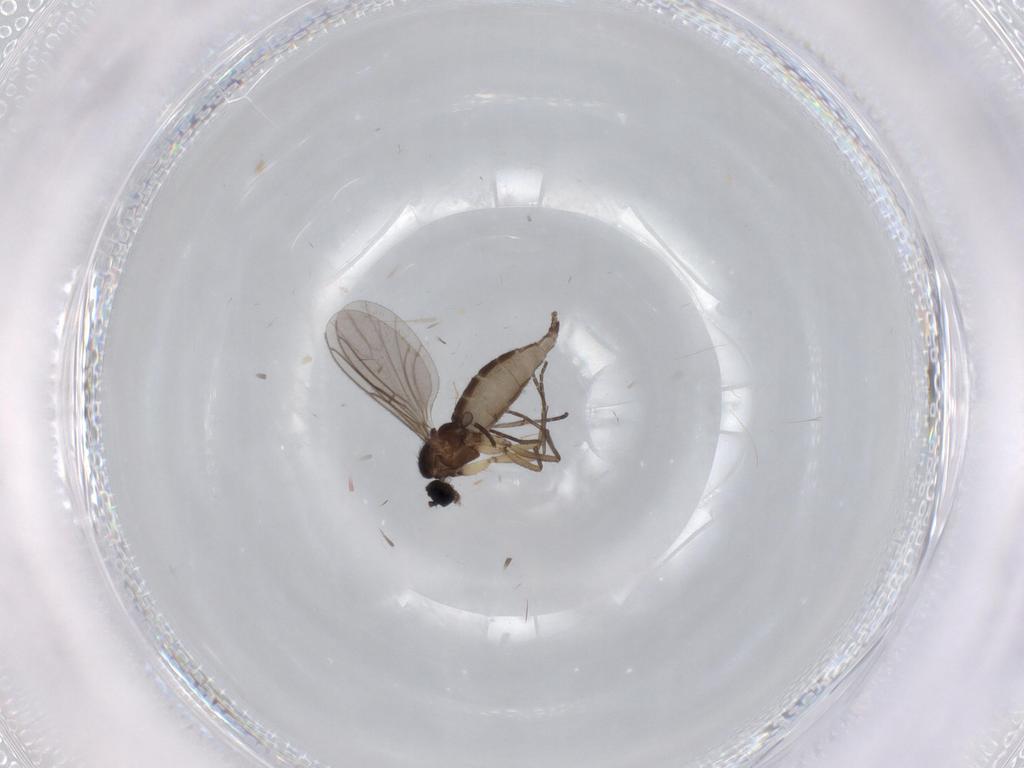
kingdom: Animalia
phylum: Arthropoda
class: Insecta
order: Diptera
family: Sciaridae
